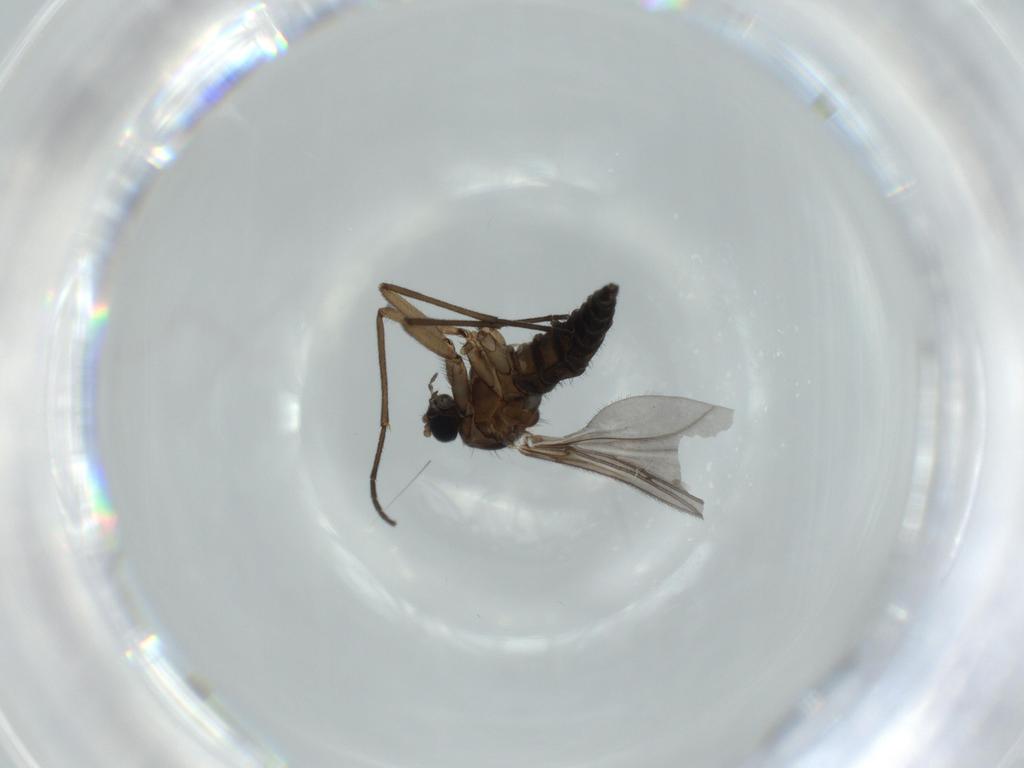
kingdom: Animalia
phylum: Arthropoda
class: Insecta
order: Diptera
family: Sciaridae
